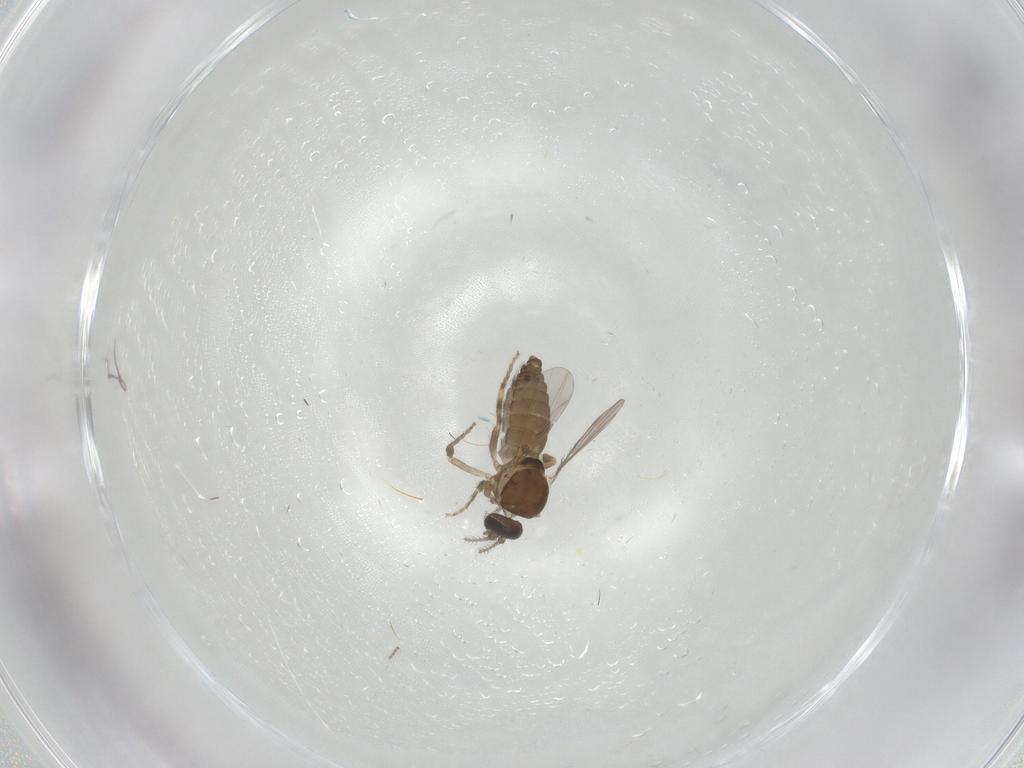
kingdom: Animalia
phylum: Arthropoda
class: Insecta
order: Diptera
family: Ceratopogonidae
